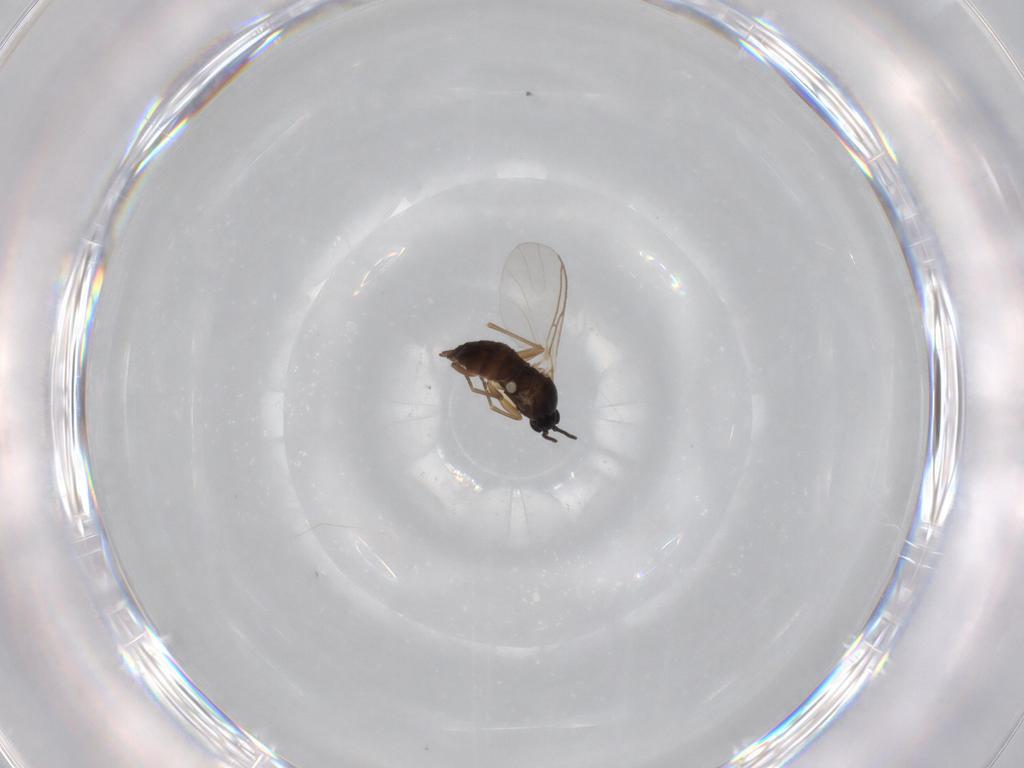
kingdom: Animalia
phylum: Arthropoda
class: Insecta
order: Diptera
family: Sciaridae
